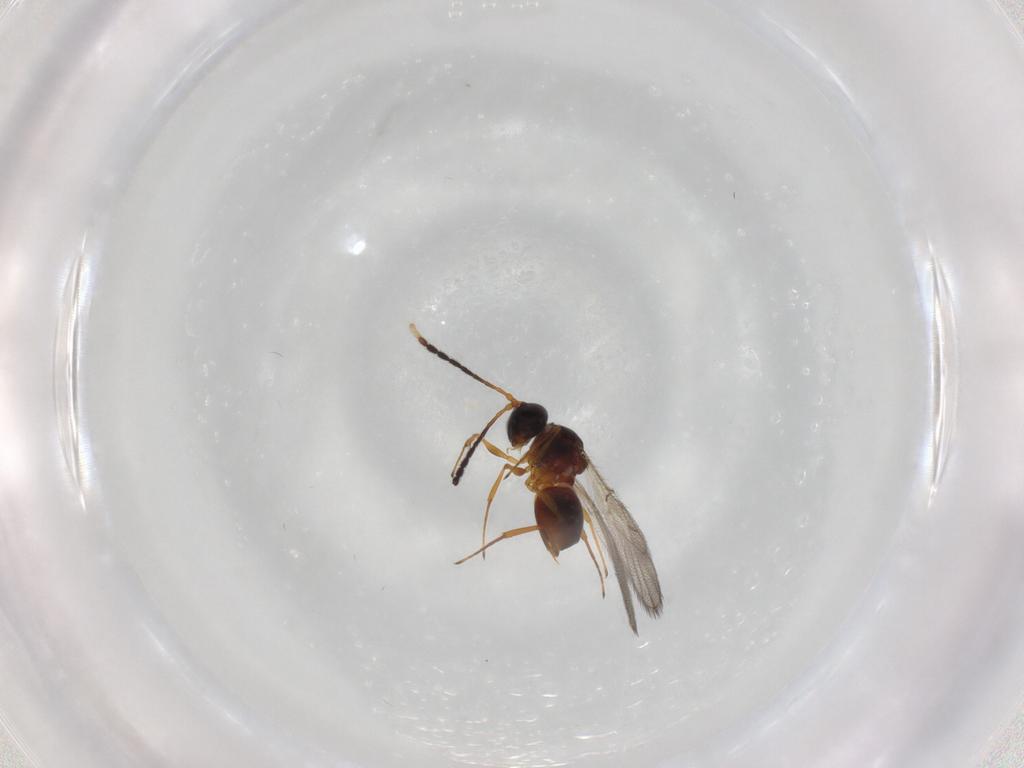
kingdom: Animalia
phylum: Arthropoda
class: Insecta
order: Hymenoptera
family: Figitidae
